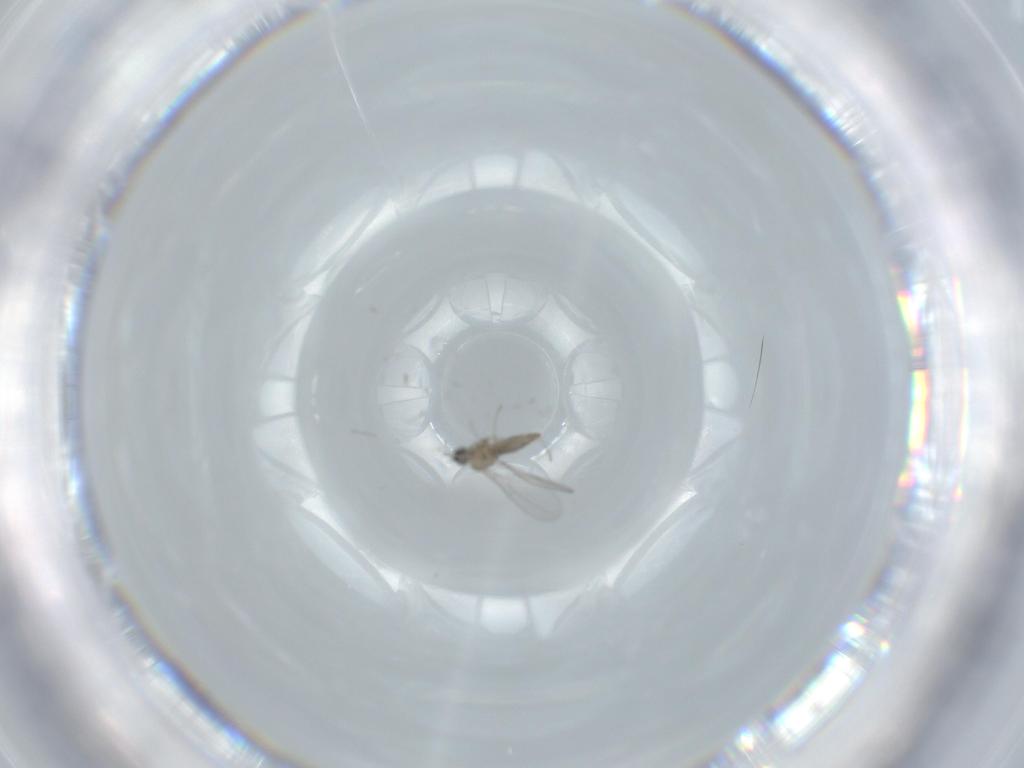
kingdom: Animalia
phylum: Arthropoda
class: Insecta
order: Diptera
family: Cecidomyiidae
